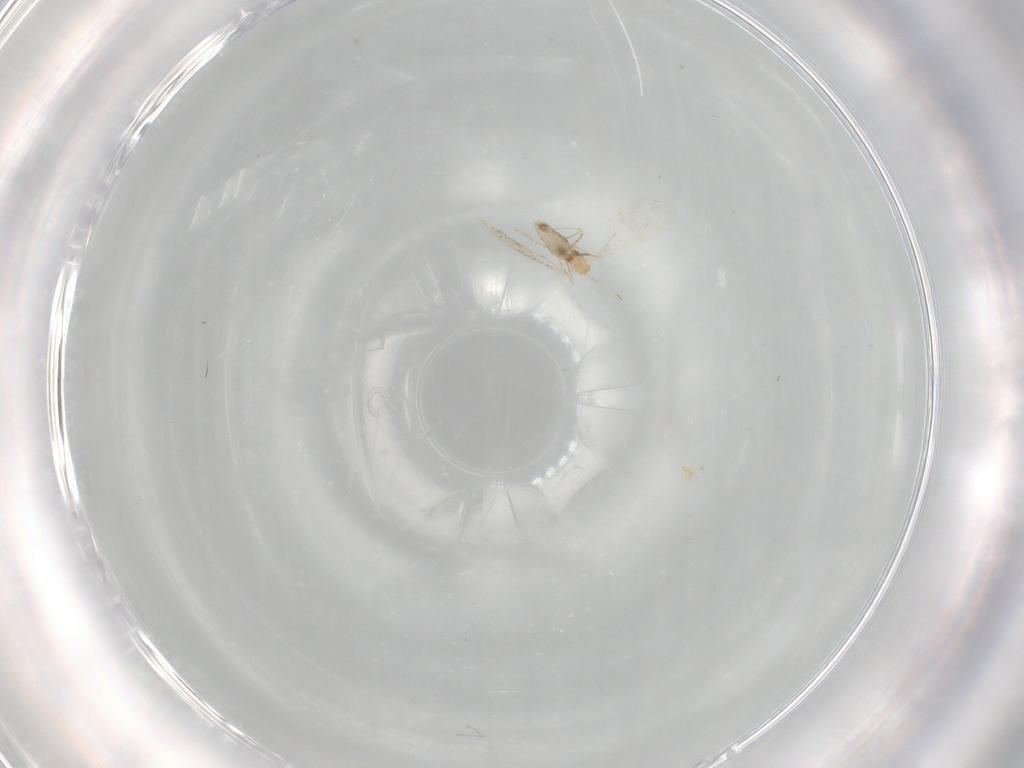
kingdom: Animalia
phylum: Arthropoda
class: Insecta
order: Diptera
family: Cecidomyiidae
